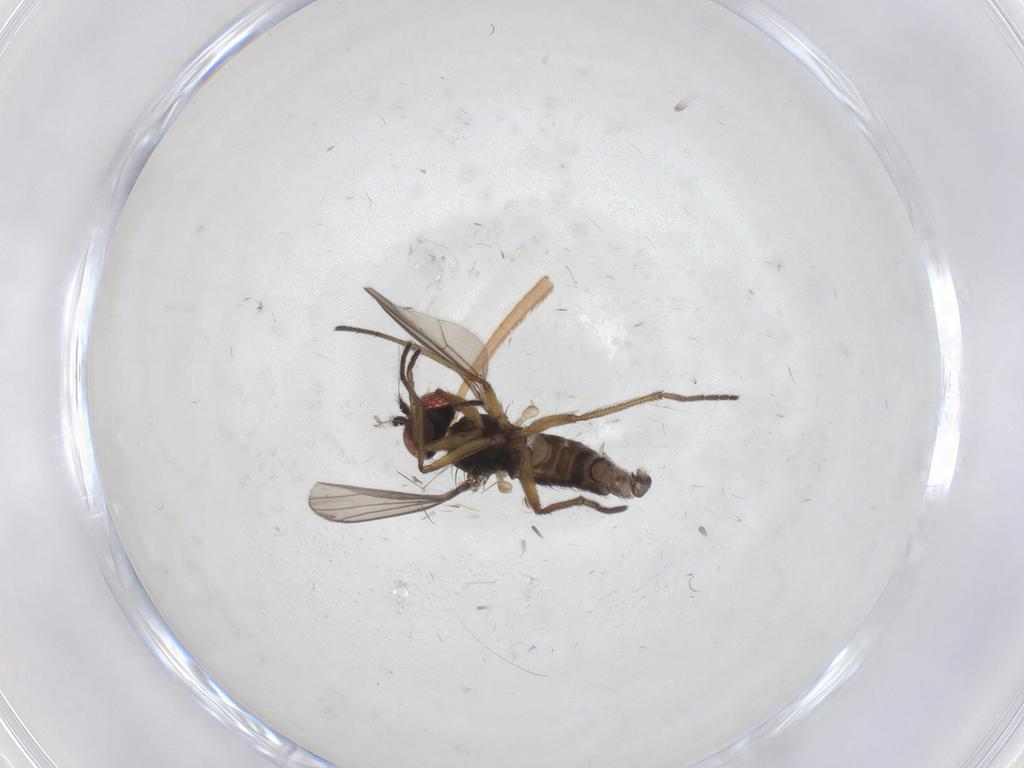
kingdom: Animalia
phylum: Arthropoda
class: Insecta
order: Diptera
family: Dolichopodidae
